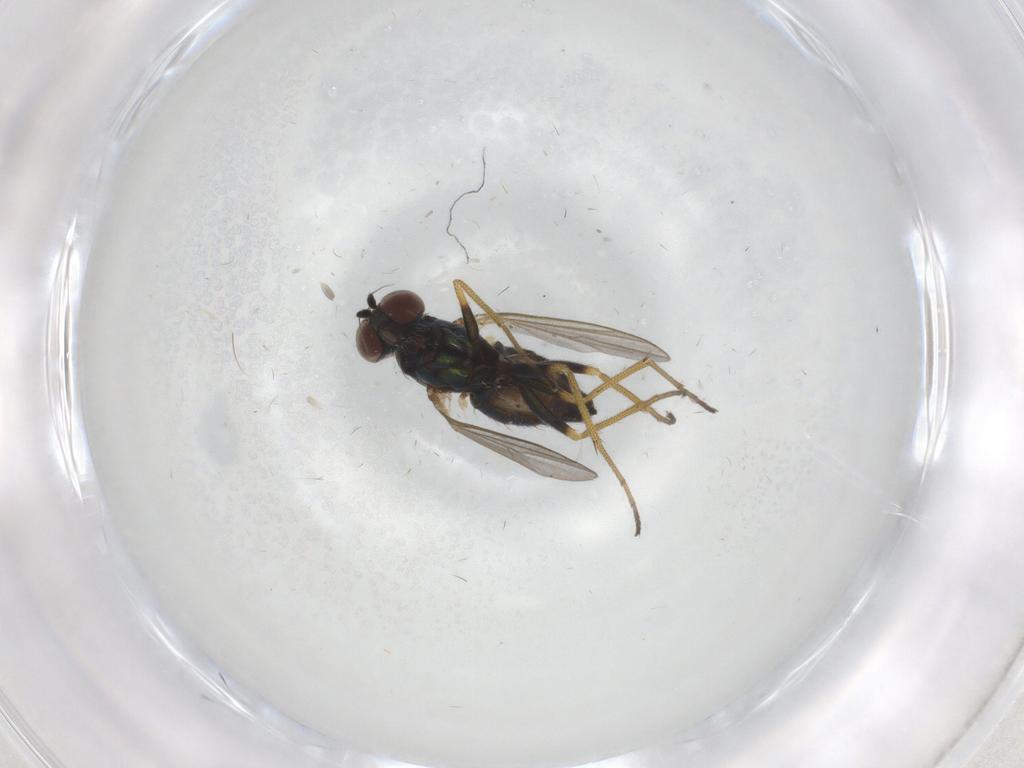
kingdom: Animalia
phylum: Arthropoda
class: Insecta
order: Diptera
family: Dolichopodidae
